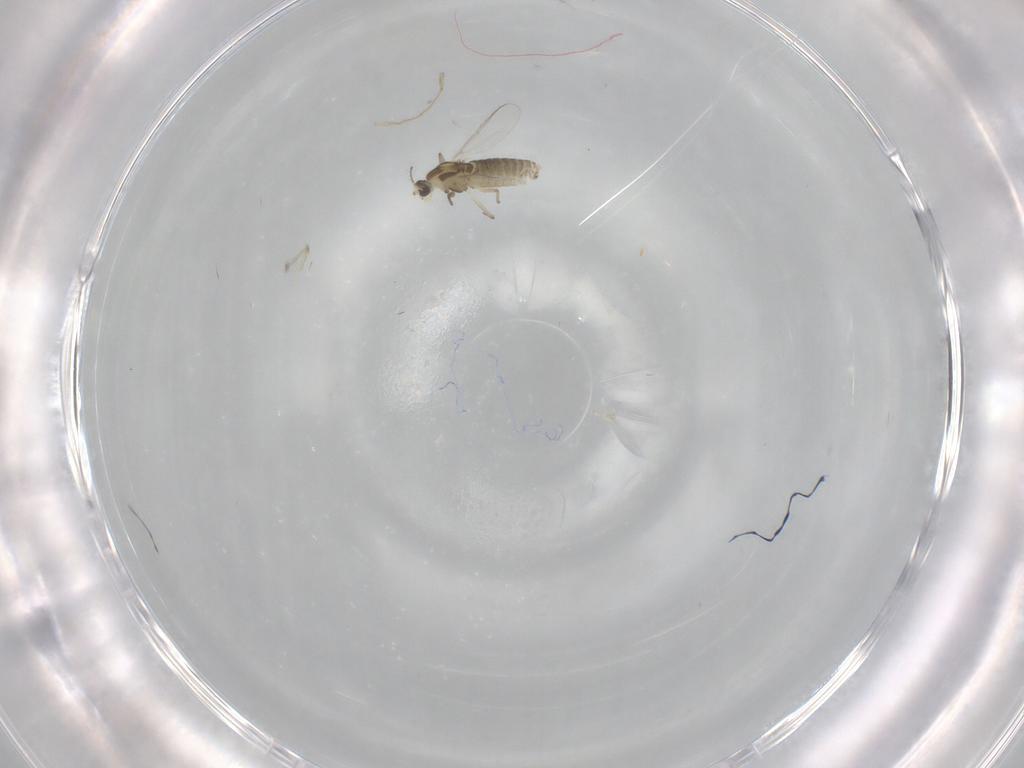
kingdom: Animalia
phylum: Arthropoda
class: Insecta
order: Diptera
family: Chironomidae
